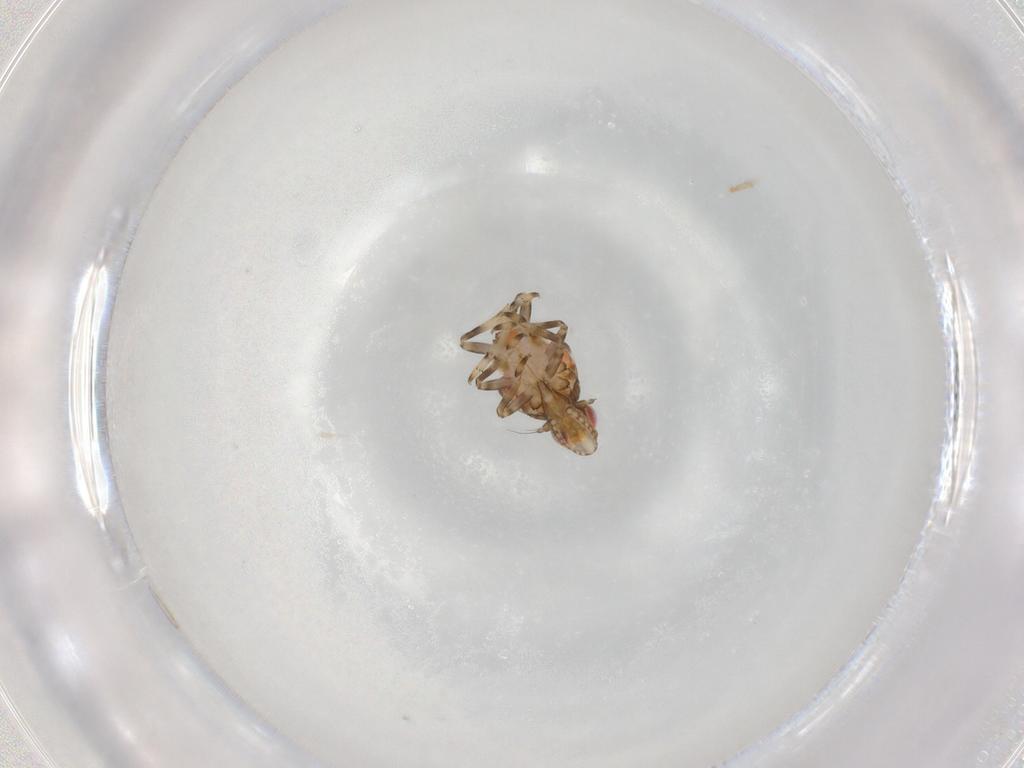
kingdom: Animalia
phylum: Arthropoda
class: Insecta
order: Hemiptera
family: Tropiduchidae
